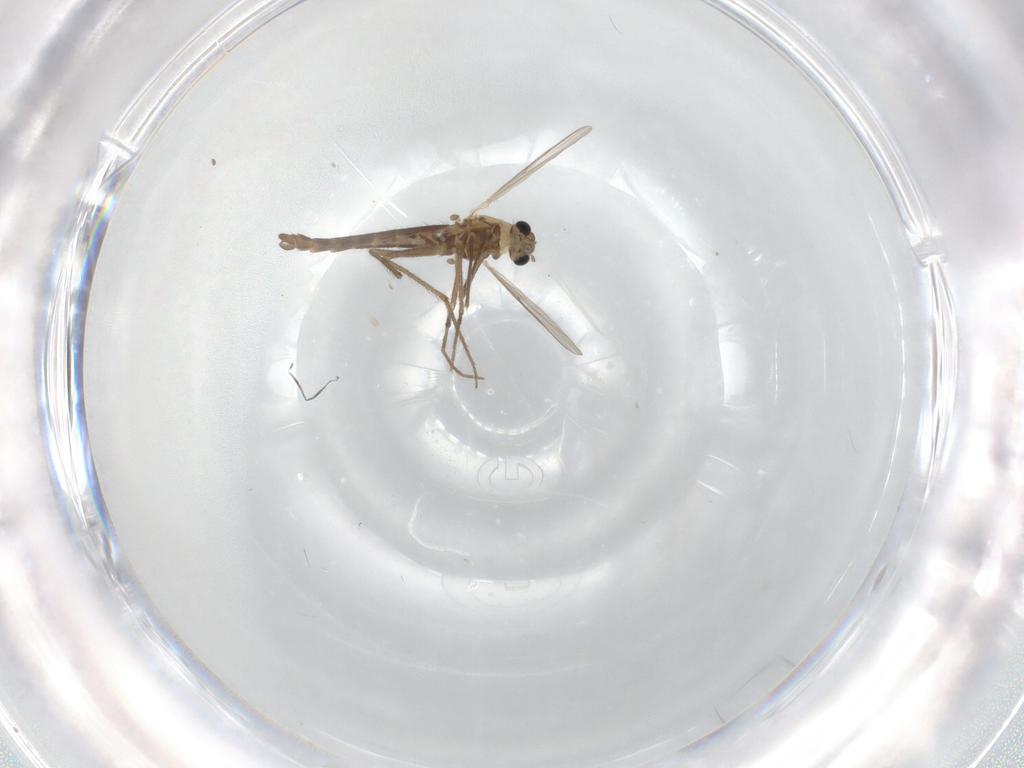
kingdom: Animalia
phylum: Arthropoda
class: Insecta
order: Diptera
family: Chironomidae
